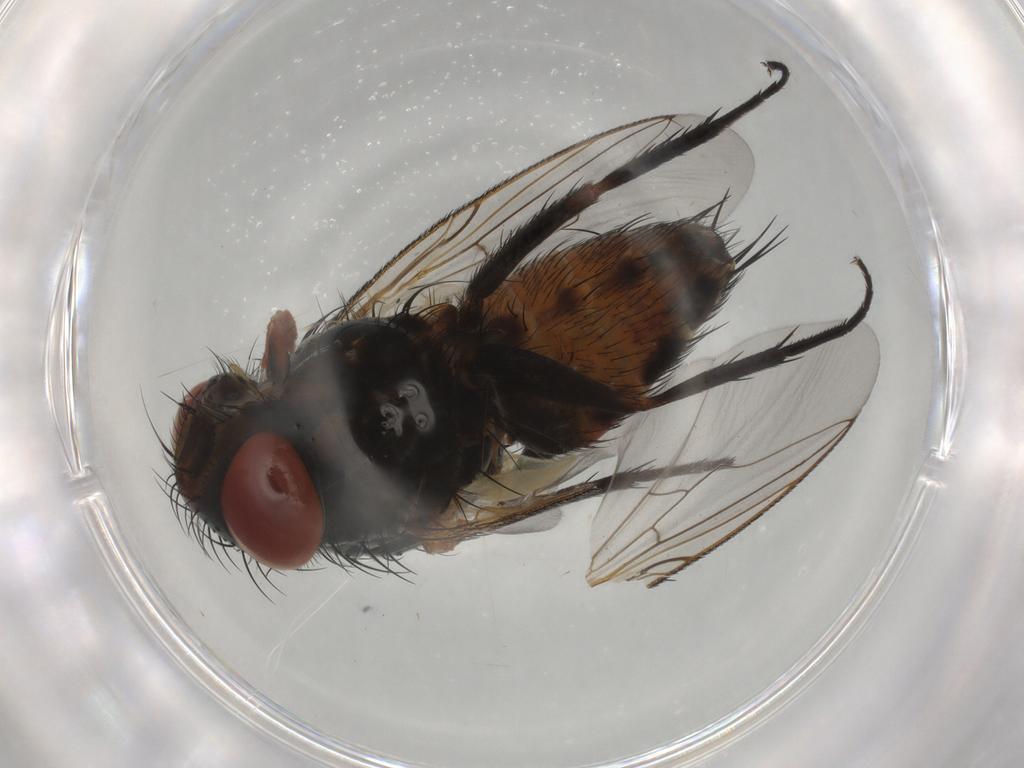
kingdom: Animalia
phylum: Arthropoda
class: Insecta
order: Diptera
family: Sarcophagidae
